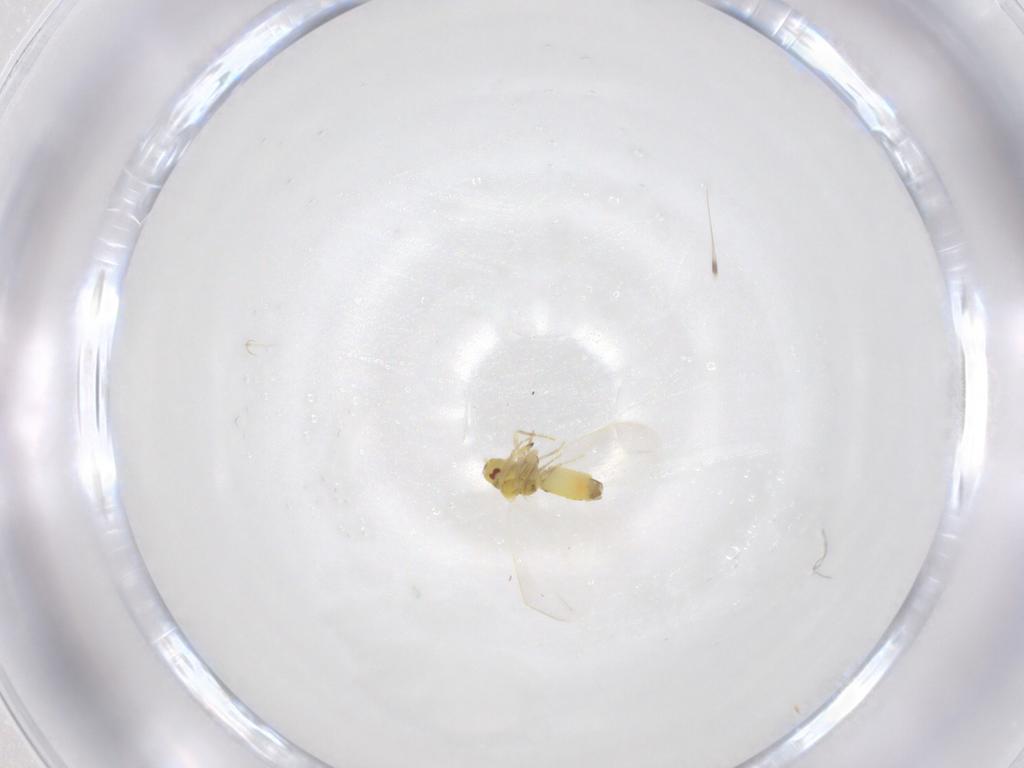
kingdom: Animalia
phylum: Arthropoda
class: Insecta
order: Hemiptera
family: Aleyrodidae
